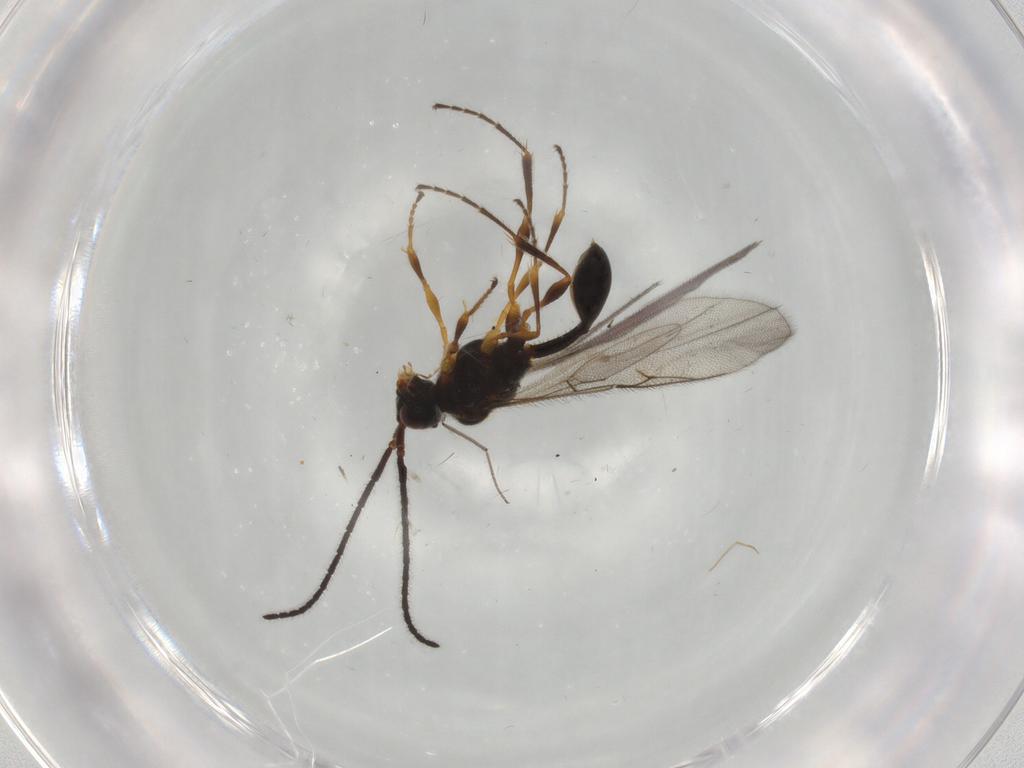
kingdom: Animalia
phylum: Arthropoda
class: Insecta
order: Hymenoptera
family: Diapriidae
